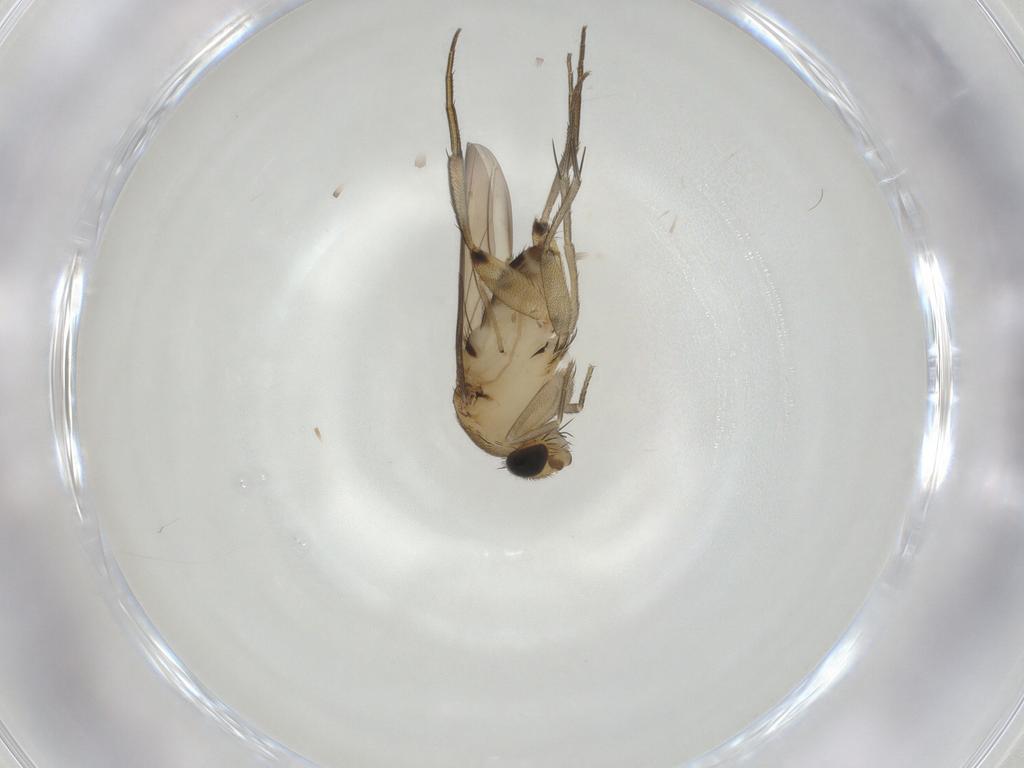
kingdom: Animalia
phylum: Arthropoda
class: Insecta
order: Diptera
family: Phoridae
